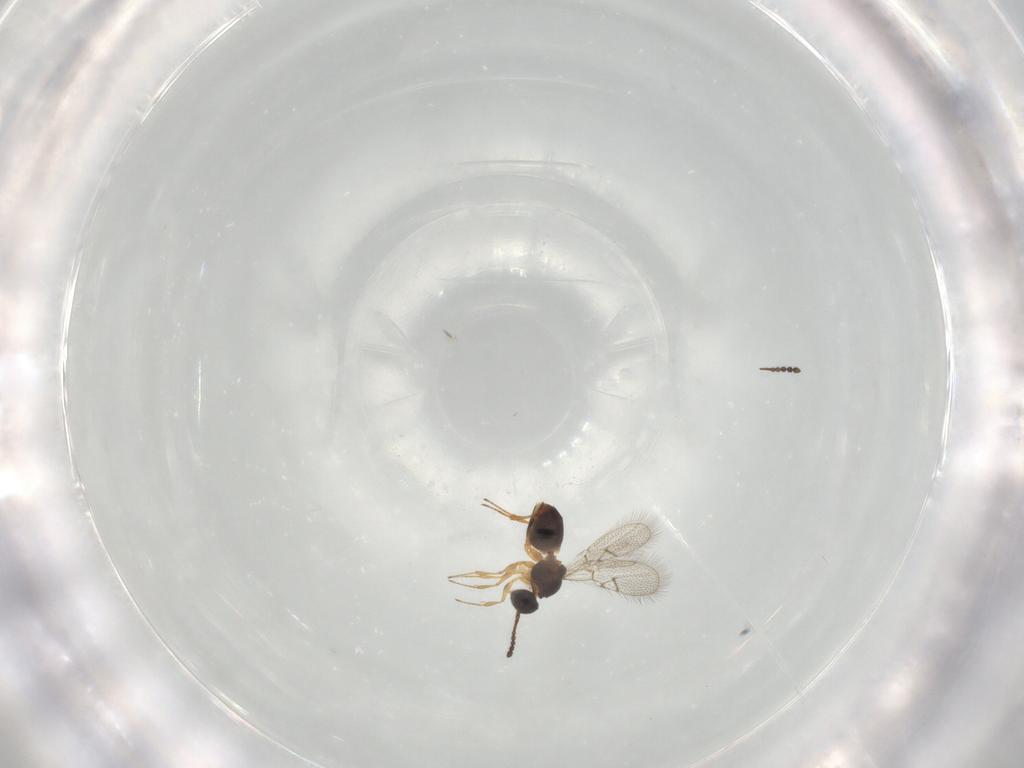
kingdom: Animalia
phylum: Arthropoda
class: Insecta
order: Hymenoptera
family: Figitidae
